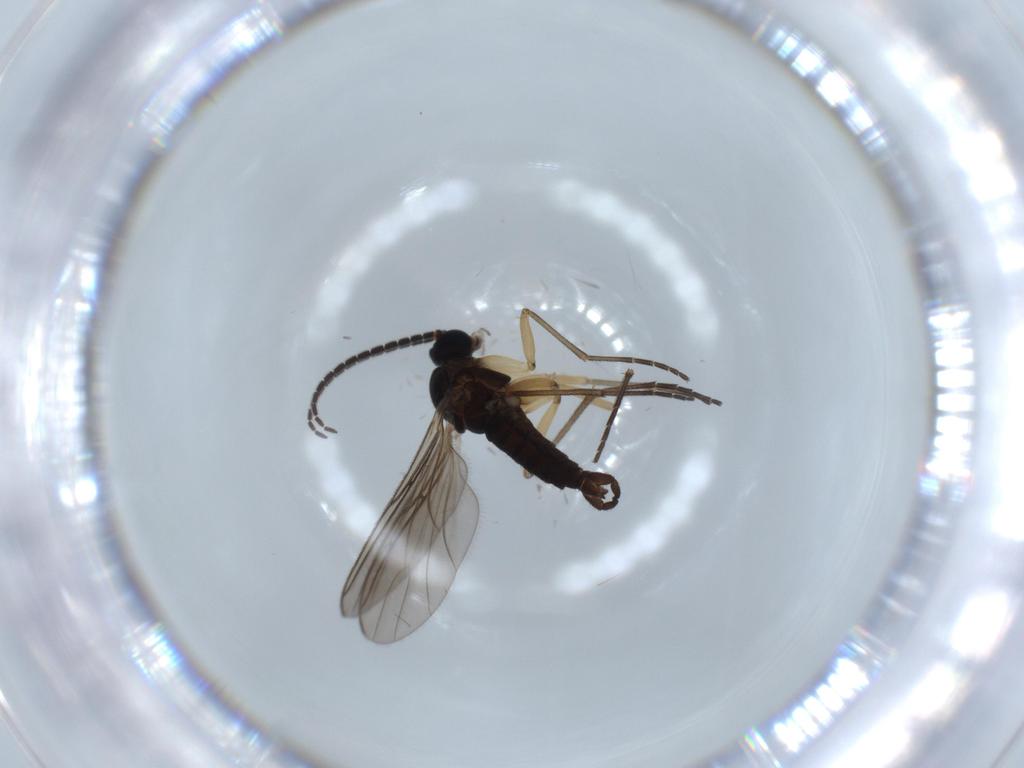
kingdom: Animalia
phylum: Arthropoda
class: Insecta
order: Diptera
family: Sciaridae
